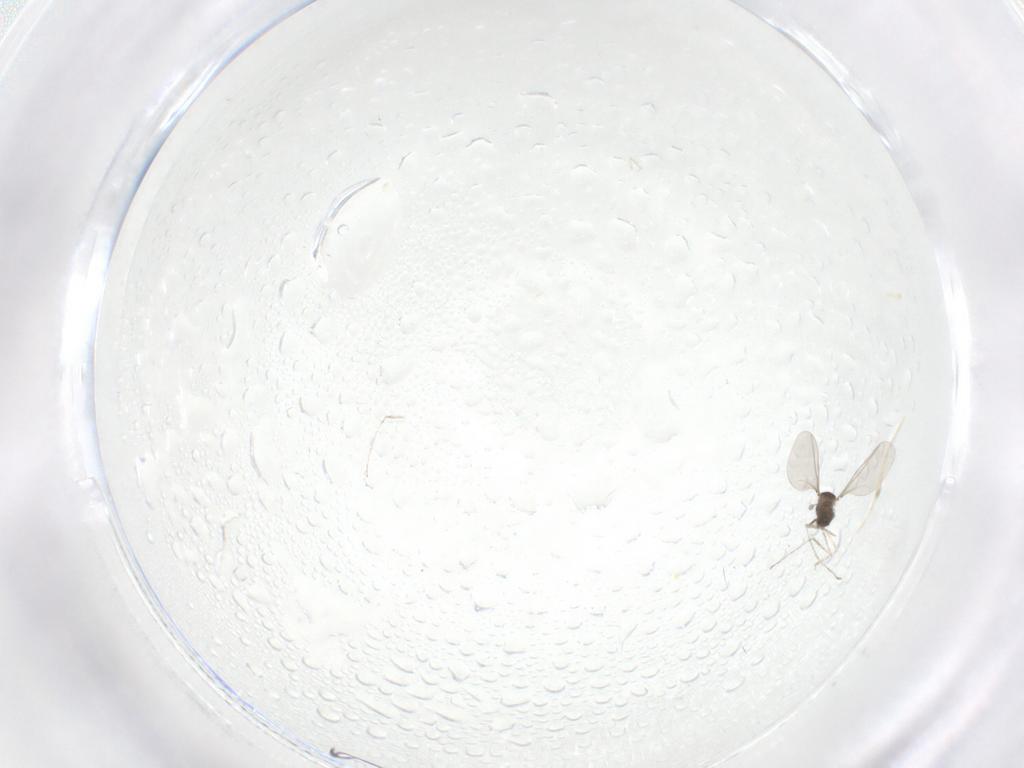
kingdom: Animalia
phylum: Arthropoda
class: Insecta
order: Diptera
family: Cecidomyiidae
